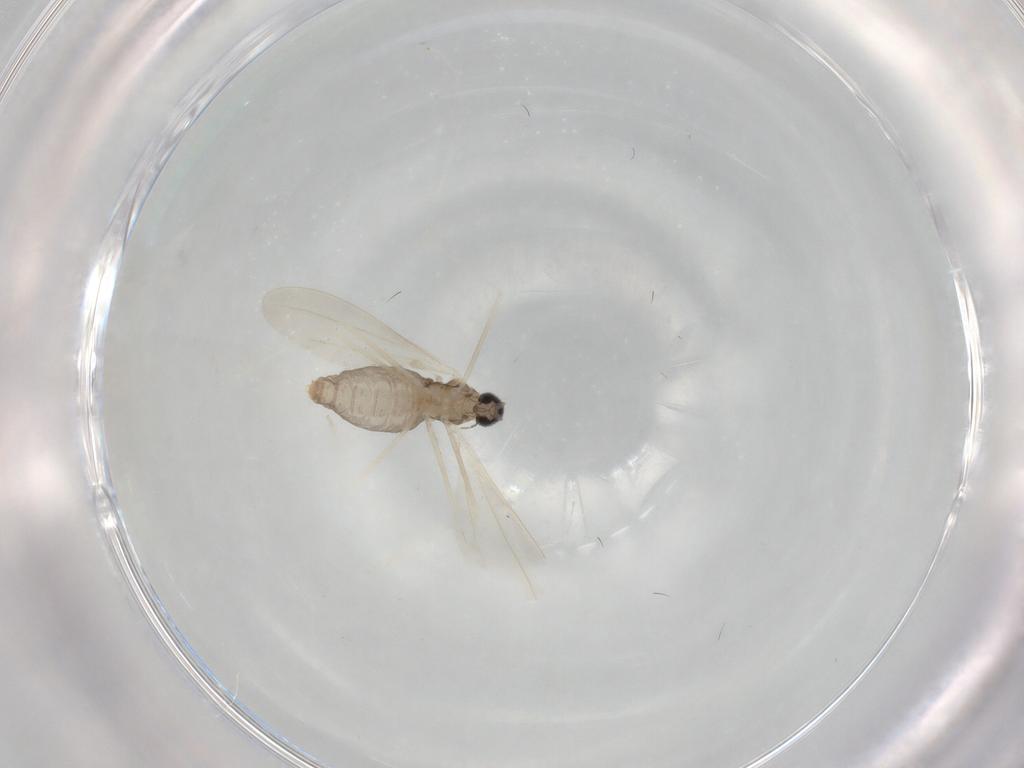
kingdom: Animalia
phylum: Arthropoda
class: Insecta
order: Diptera
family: Cecidomyiidae
